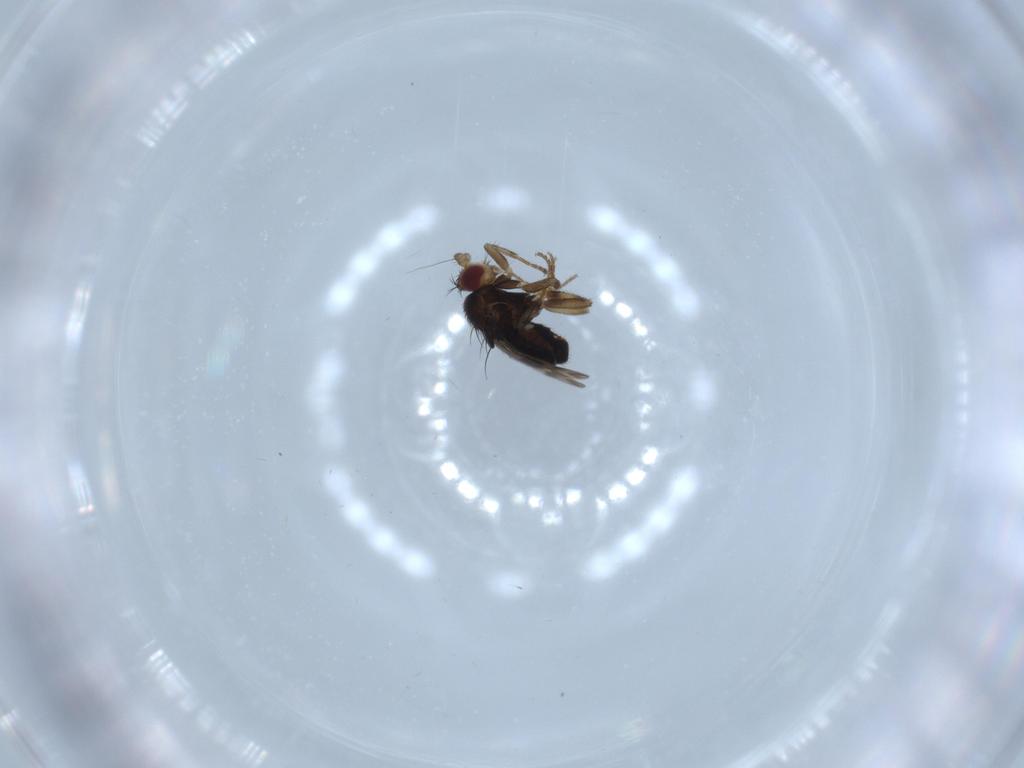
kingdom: Animalia
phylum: Arthropoda
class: Insecta
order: Diptera
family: Sphaeroceridae
